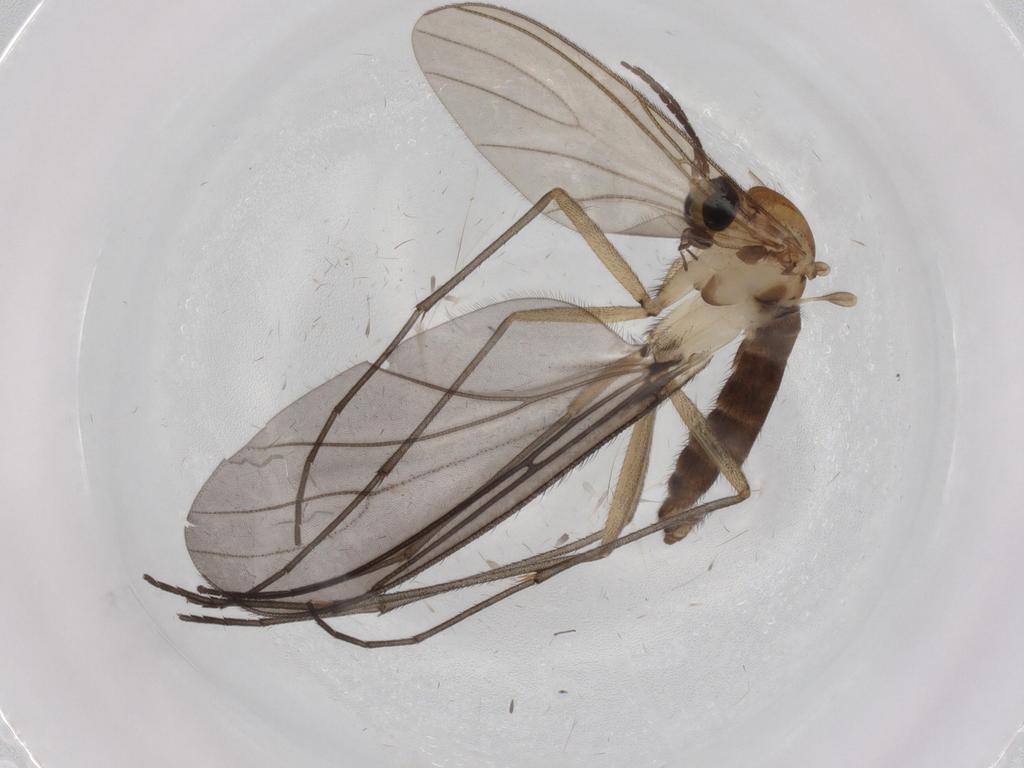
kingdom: Animalia
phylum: Arthropoda
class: Insecta
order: Diptera
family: Sciaridae
